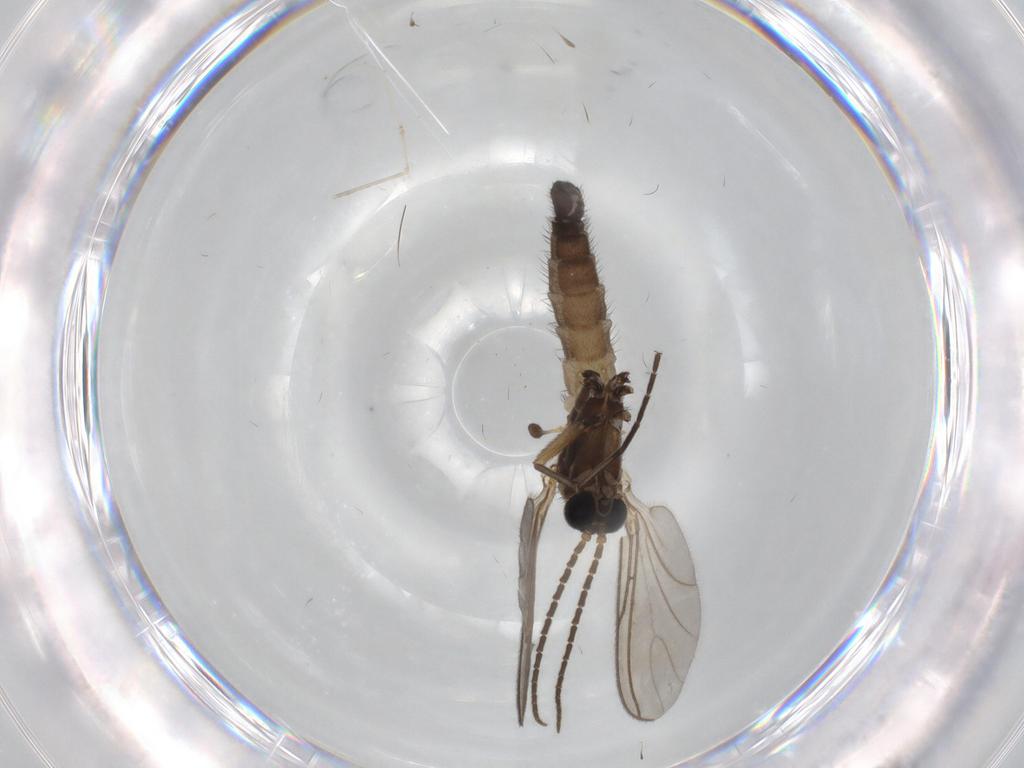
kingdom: Animalia
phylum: Arthropoda
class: Insecta
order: Diptera
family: Sciaridae
